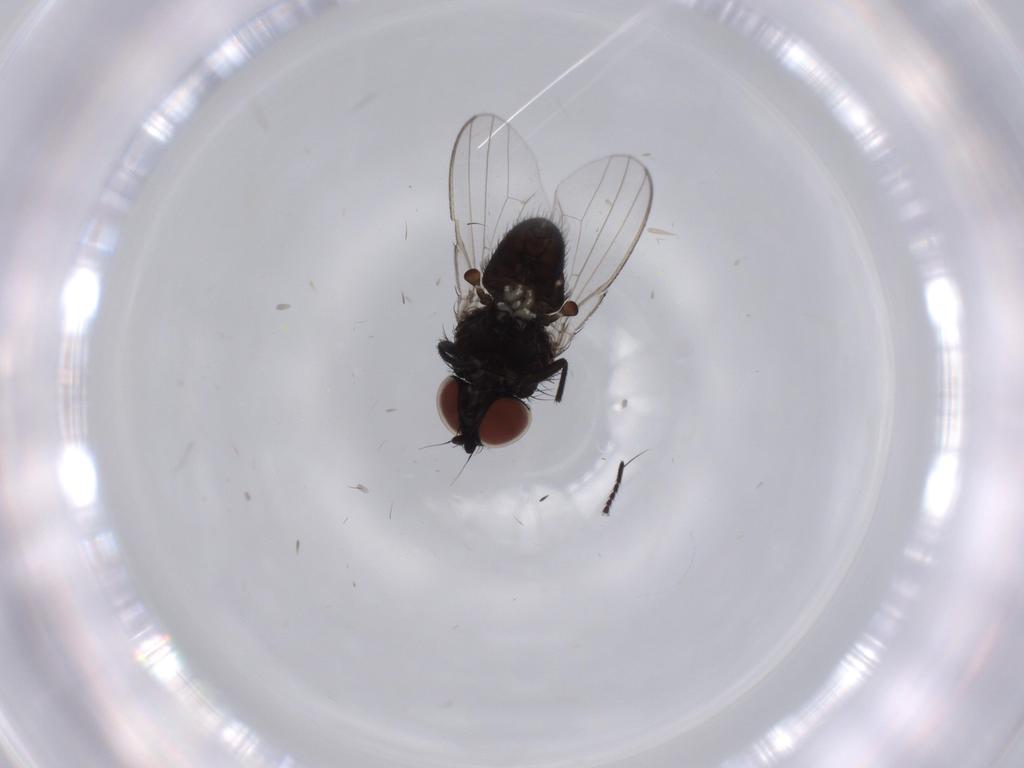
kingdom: Animalia
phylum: Arthropoda
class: Insecta
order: Diptera
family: Milichiidae
